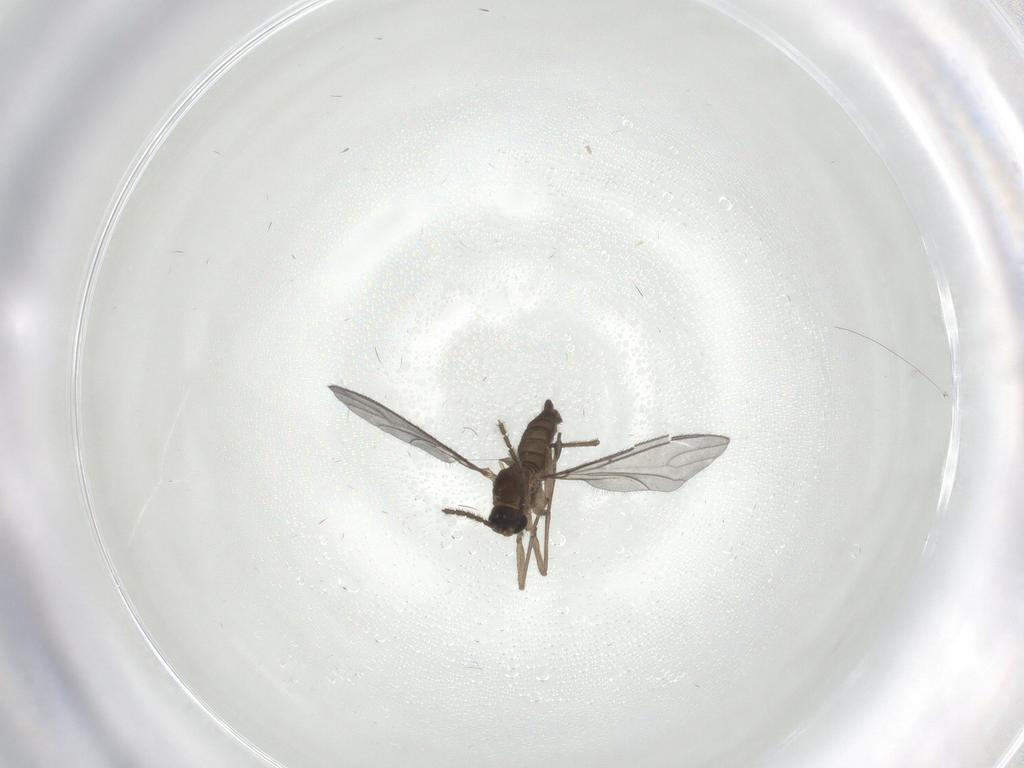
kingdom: Animalia
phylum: Arthropoda
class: Insecta
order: Diptera
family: Sciaridae
